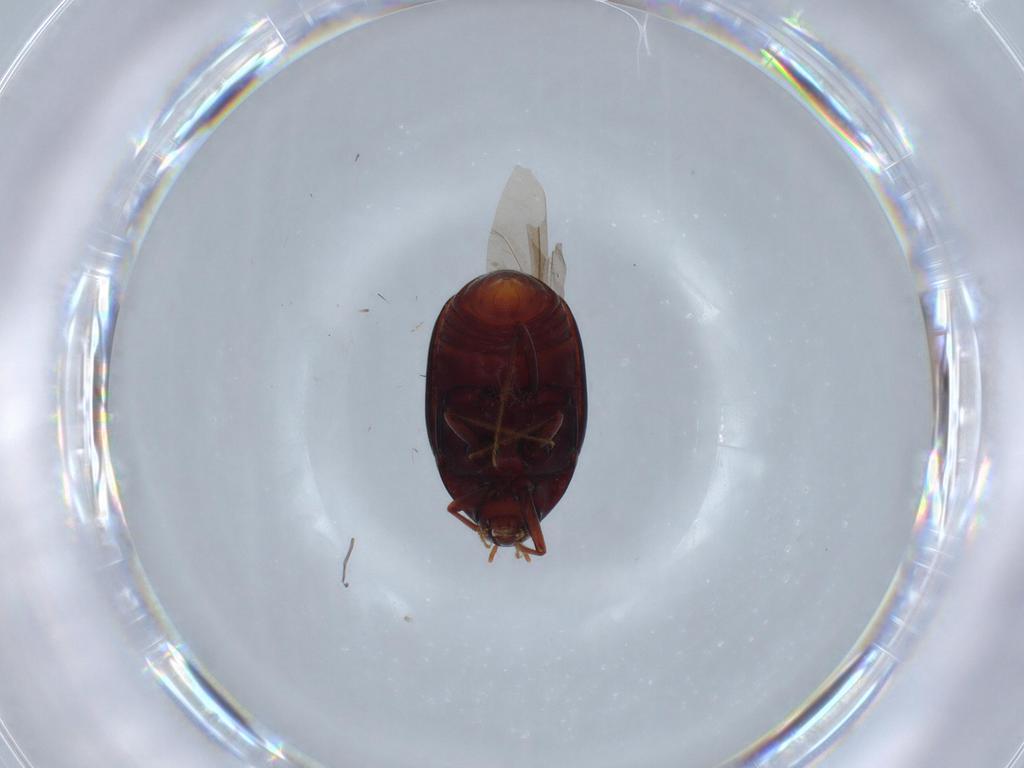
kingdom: Animalia
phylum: Arthropoda
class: Insecta
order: Coleoptera
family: Staphylinidae
